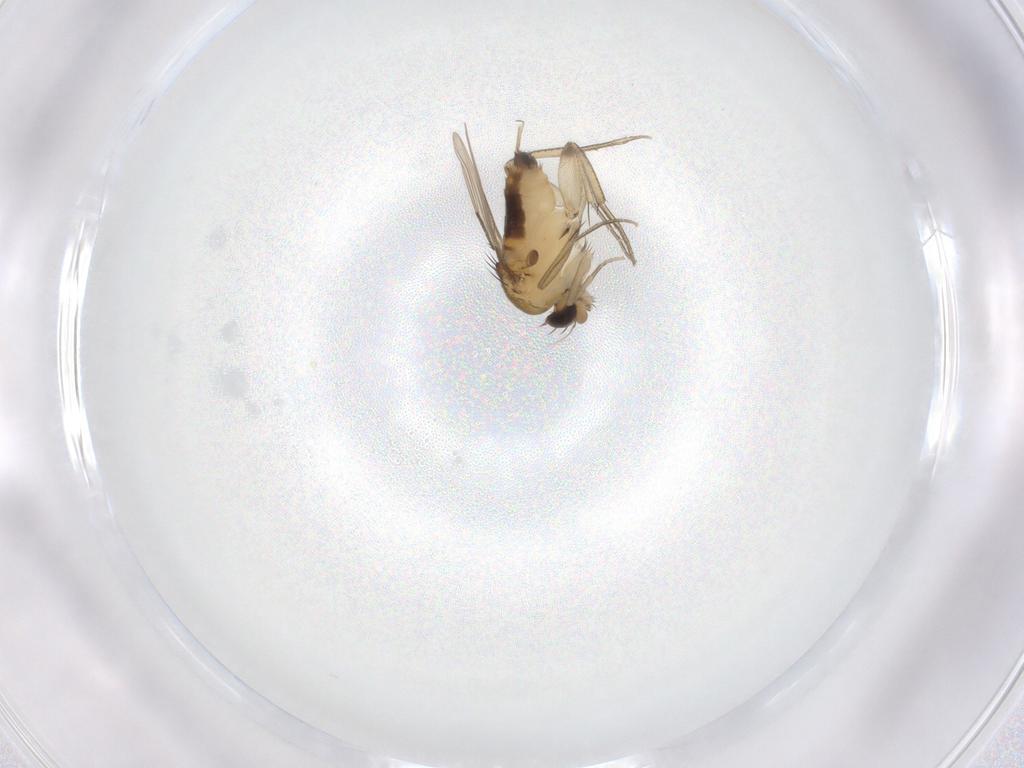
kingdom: Animalia
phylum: Arthropoda
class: Insecta
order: Diptera
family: Phoridae
